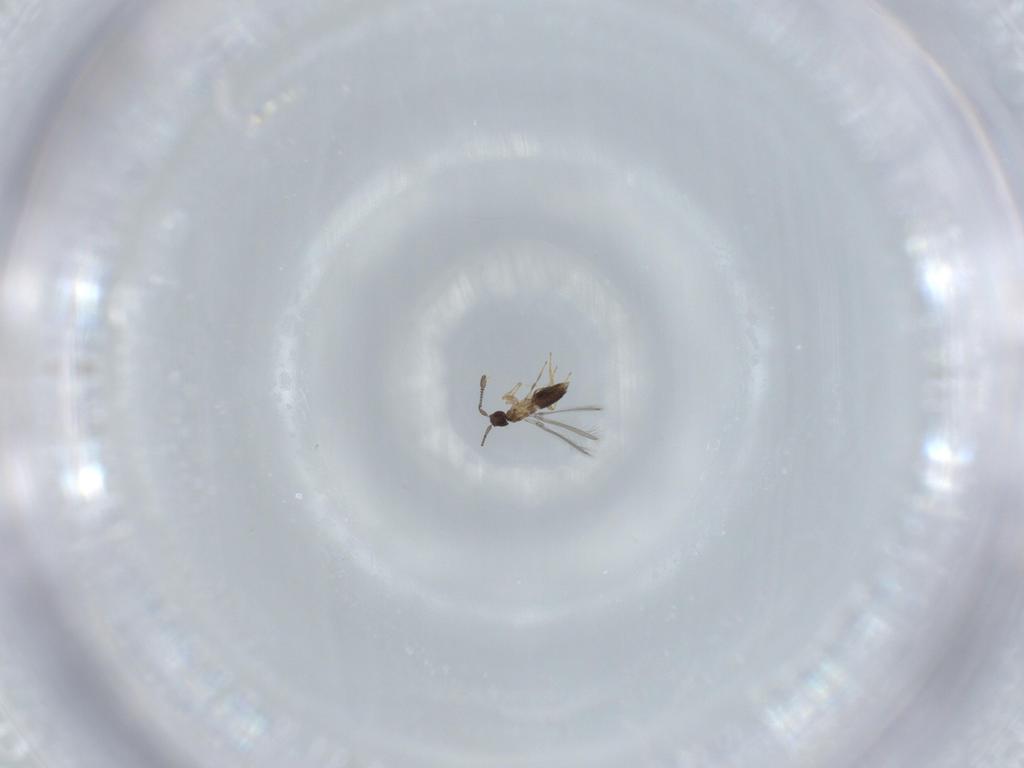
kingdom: Animalia
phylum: Arthropoda
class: Insecta
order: Hymenoptera
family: Mymaridae
